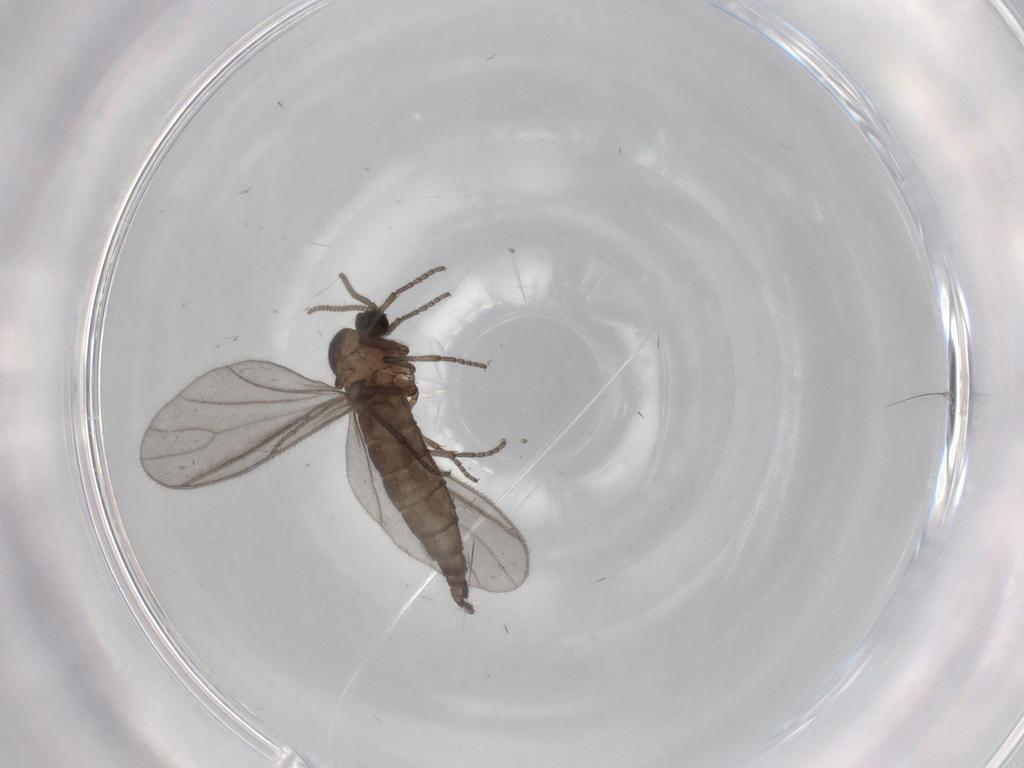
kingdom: Animalia
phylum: Arthropoda
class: Insecta
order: Diptera
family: Sciaridae
